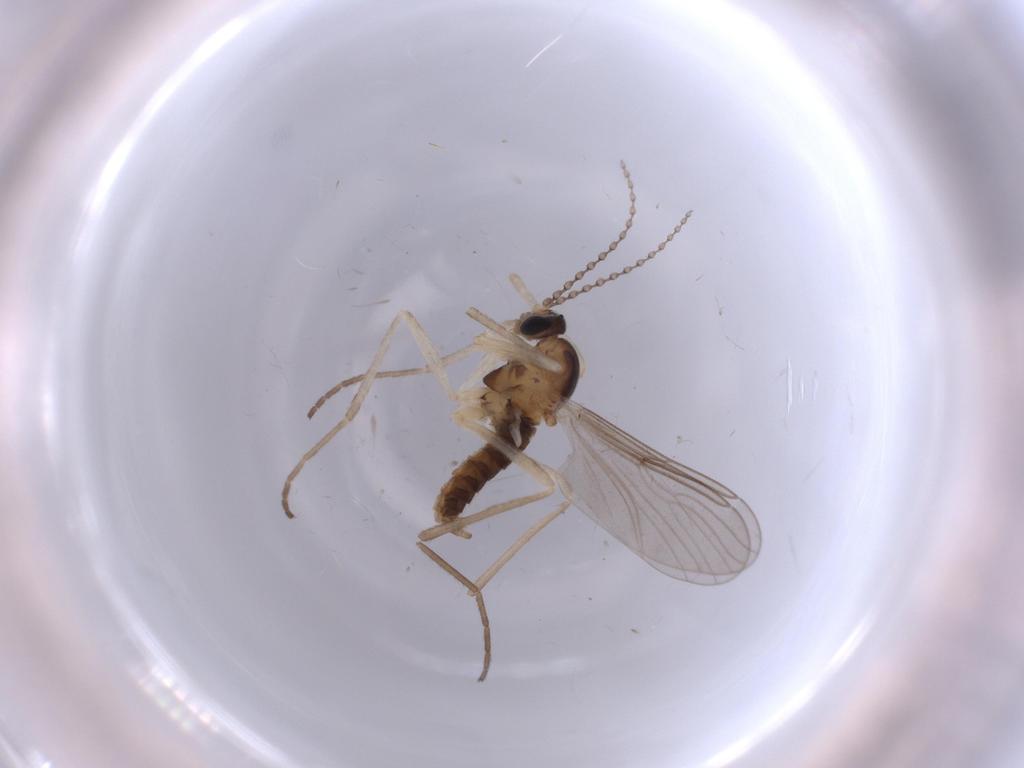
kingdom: Animalia
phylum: Arthropoda
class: Insecta
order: Diptera
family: Cecidomyiidae
